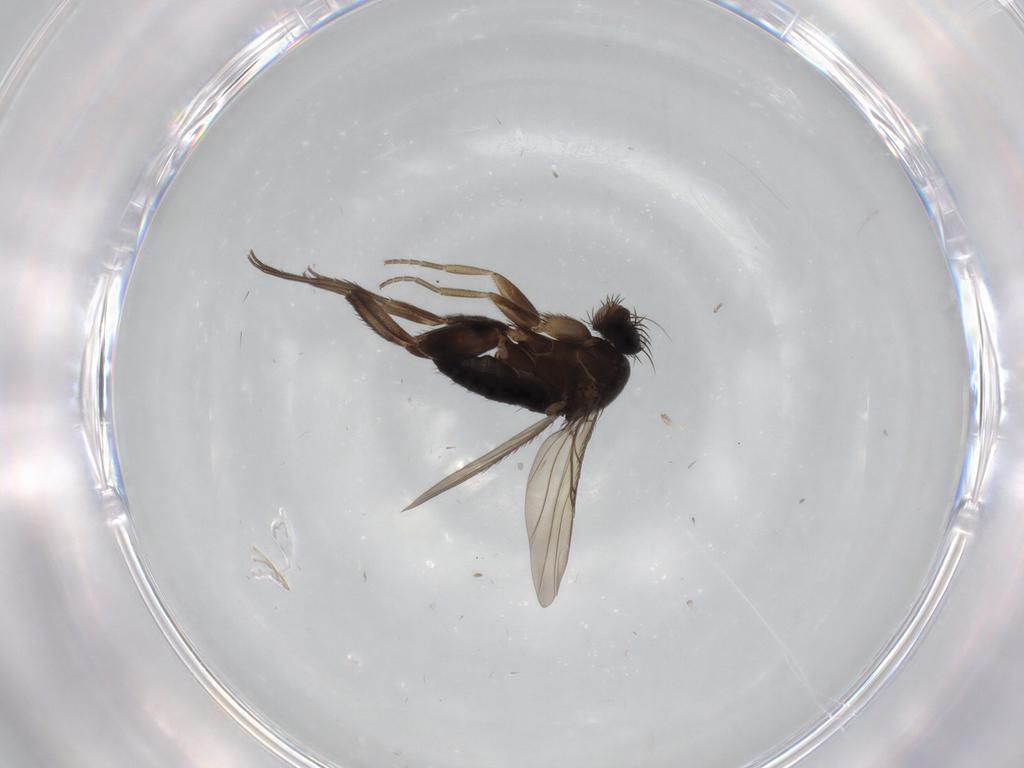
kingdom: Animalia
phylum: Arthropoda
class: Insecta
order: Diptera
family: Phoridae
